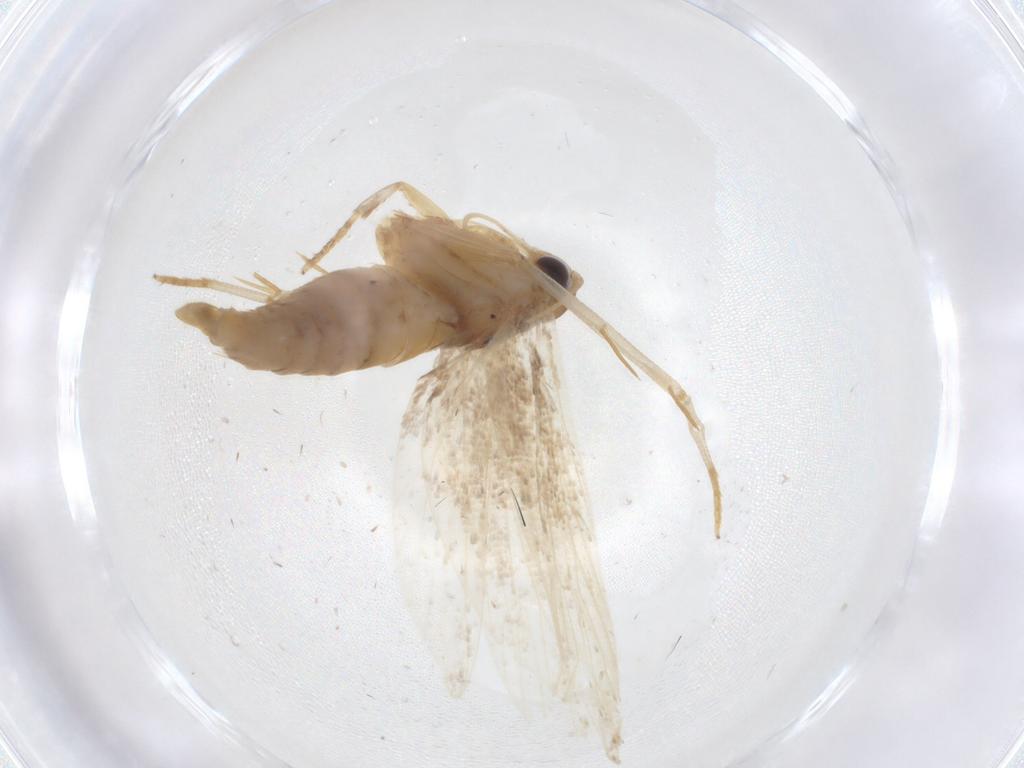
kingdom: Animalia
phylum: Arthropoda
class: Insecta
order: Lepidoptera
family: Oecophoridae
